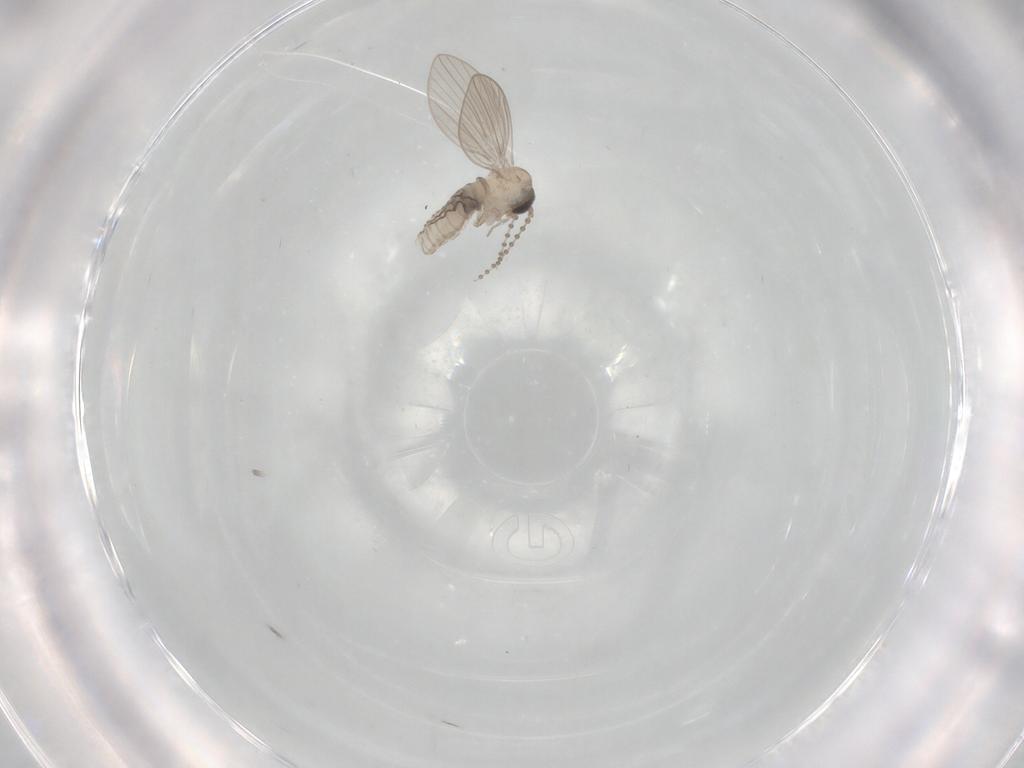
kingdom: Animalia
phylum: Arthropoda
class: Insecta
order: Diptera
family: Psychodidae
